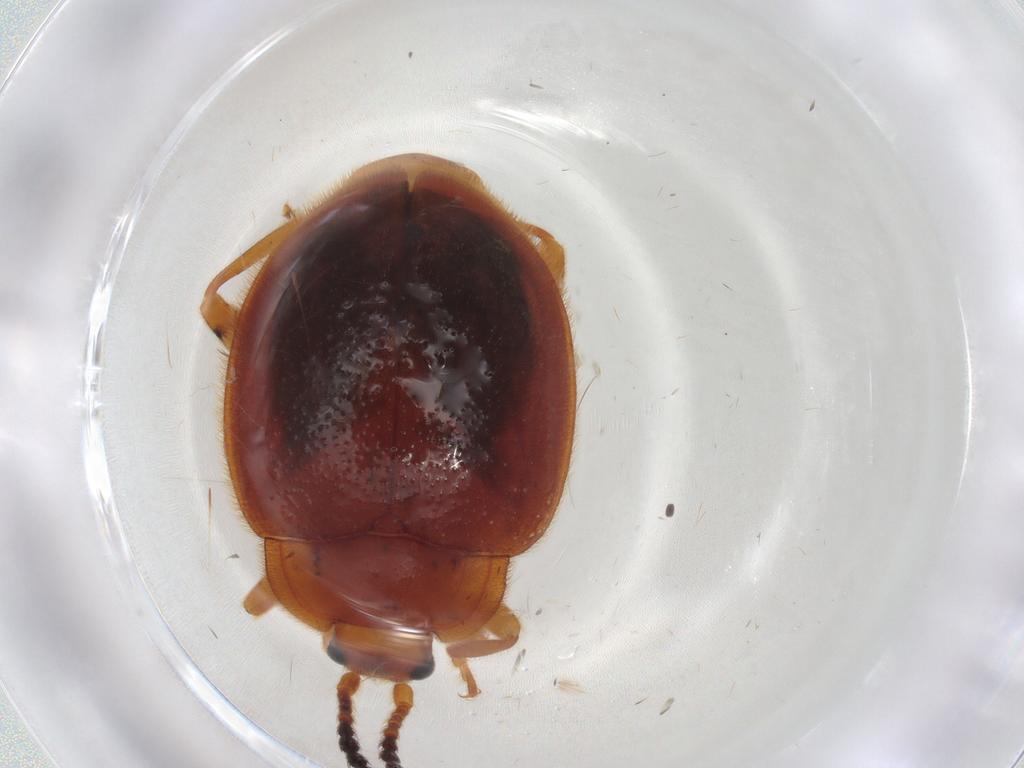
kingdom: Animalia
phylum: Arthropoda
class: Insecta
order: Coleoptera
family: Endomychidae
